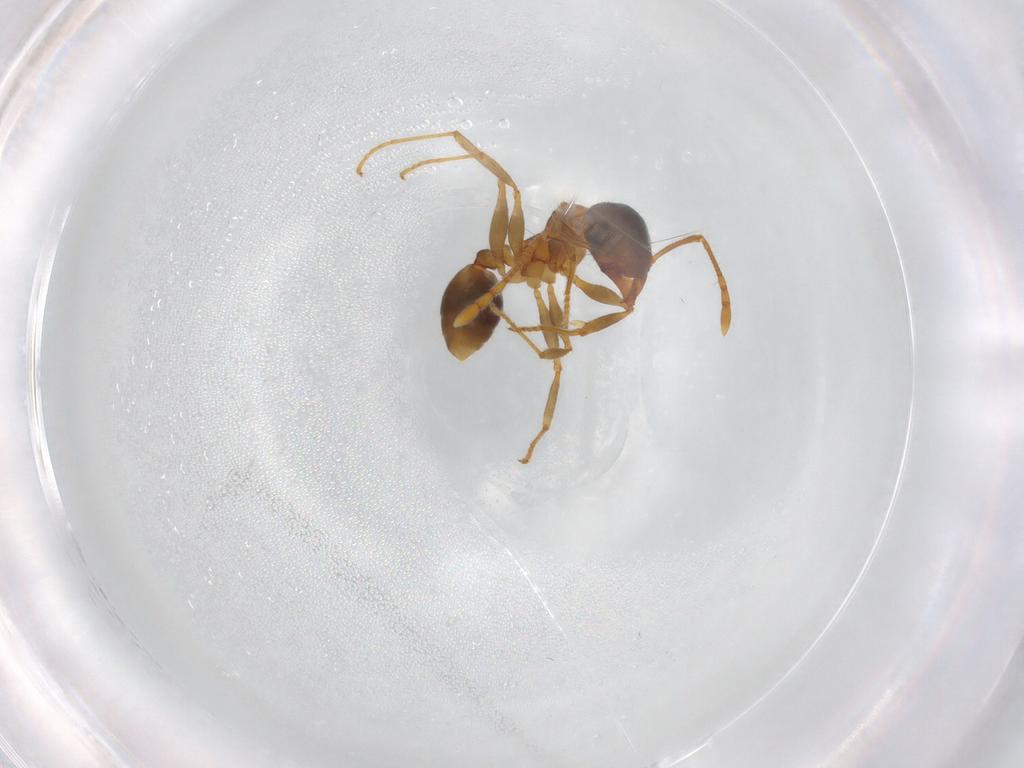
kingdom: Animalia
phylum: Arthropoda
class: Insecta
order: Hymenoptera
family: Formicidae
